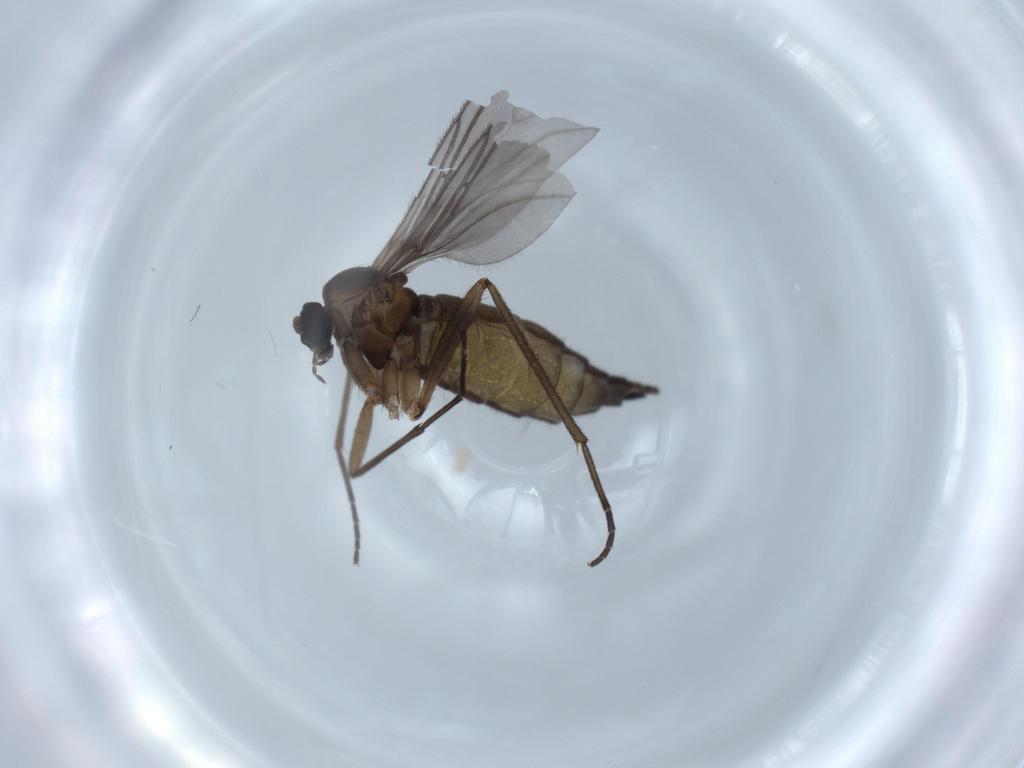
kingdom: Animalia
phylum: Arthropoda
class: Insecta
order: Diptera
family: Sciaridae
